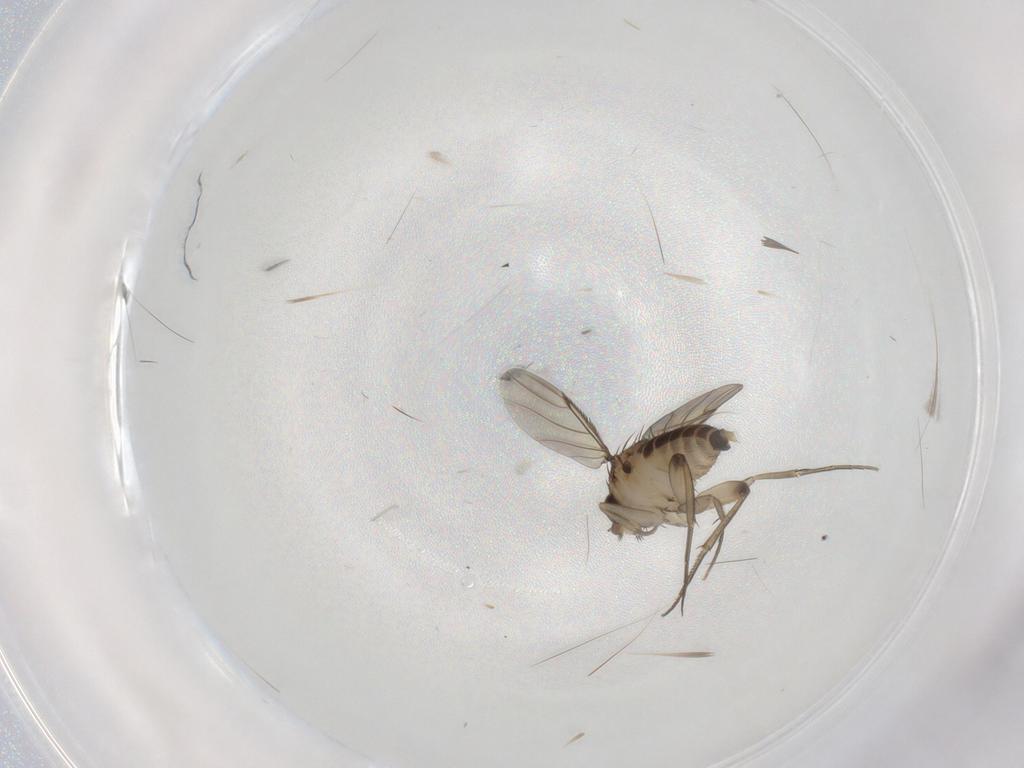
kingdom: Animalia
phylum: Arthropoda
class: Insecta
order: Diptera
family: Phoridae
